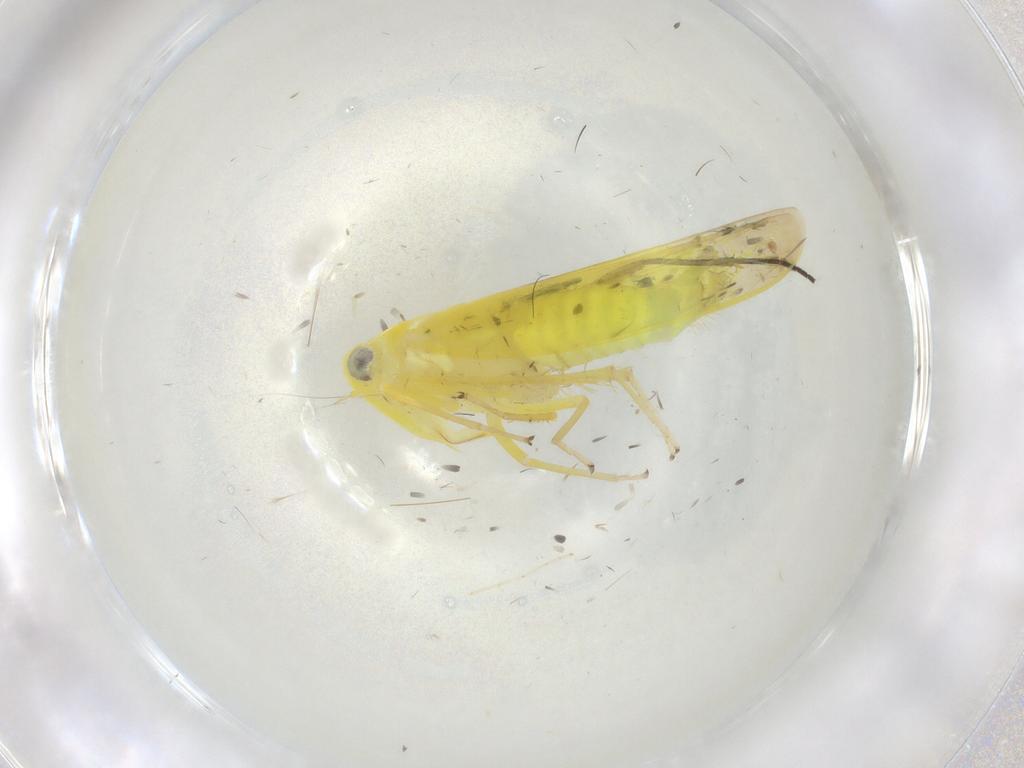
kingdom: Animalia
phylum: Arthropoda
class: Insecta
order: Hemiptera
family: Cicadellidae
